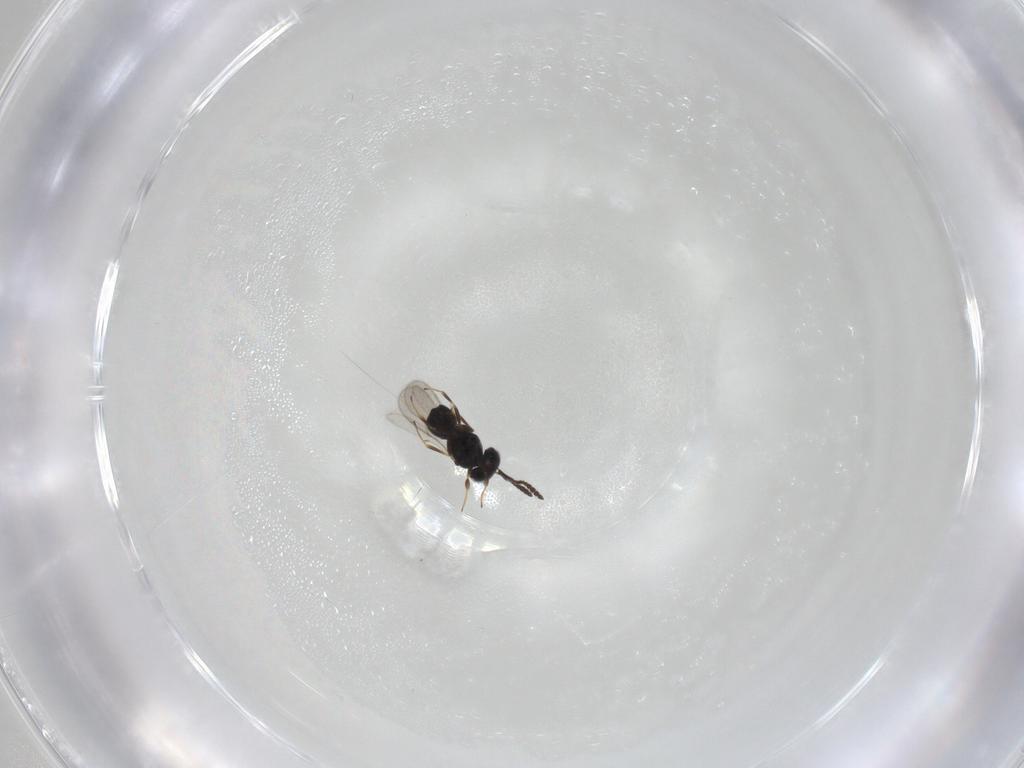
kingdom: Animalia
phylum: Arthropoda
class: Insecta
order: Hymenoptera
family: Scelionidae
